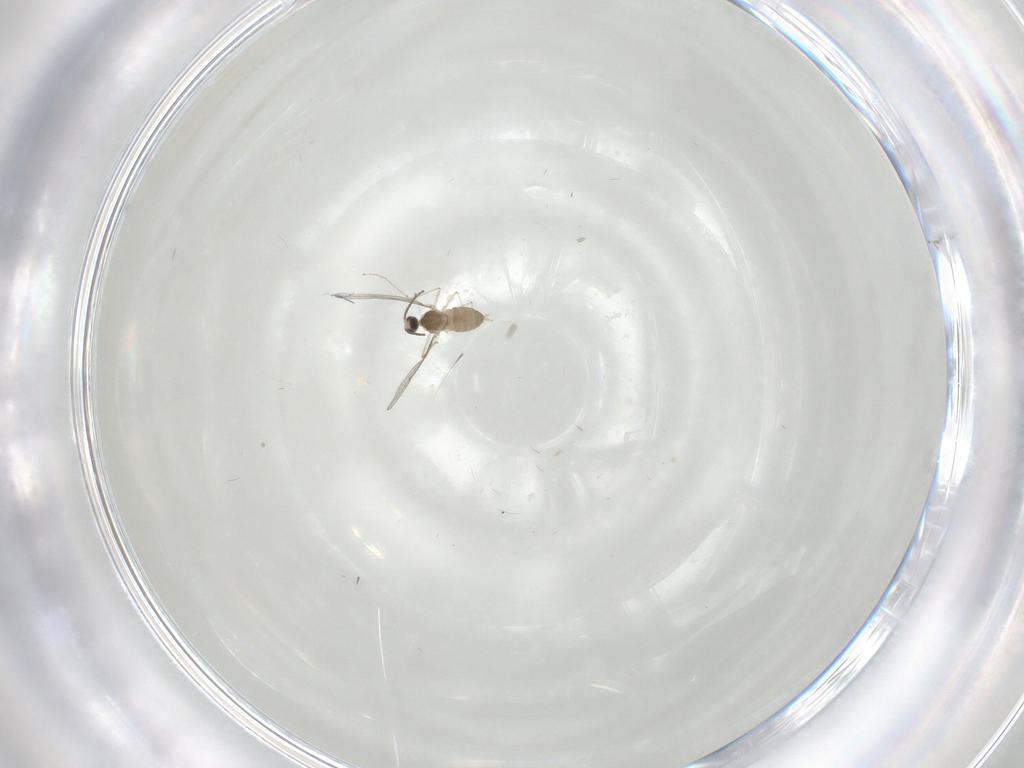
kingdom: Animalia
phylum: Arthropoda
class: Insecta
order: Diptera
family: Cecidomyiidae
